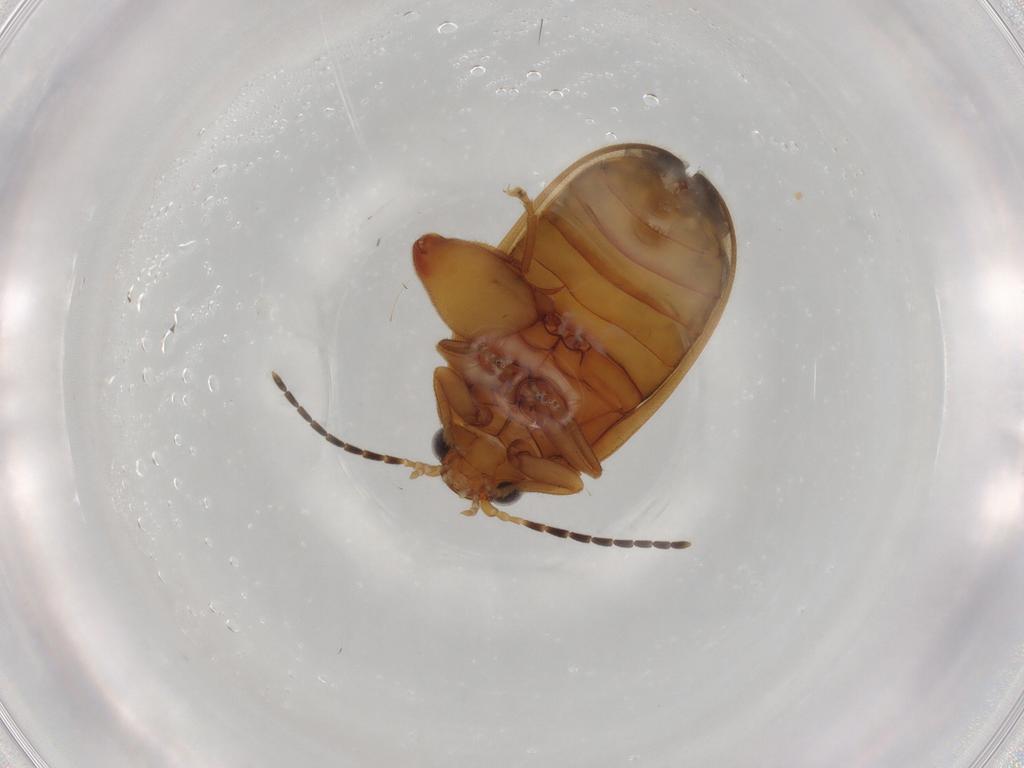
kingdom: Animalia
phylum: Arthropoda
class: Insecta
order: Coleoptera
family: Scirtidae
